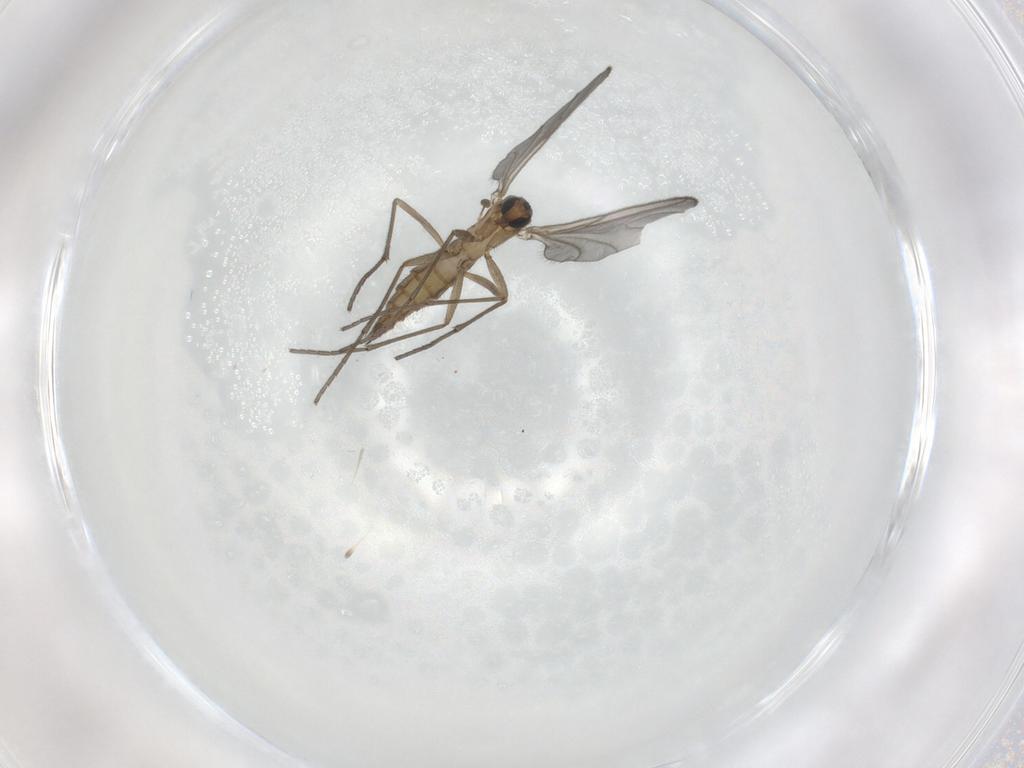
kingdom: Animalia
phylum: Arthropoda
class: Insecta
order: Diptera
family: Sciaridae
